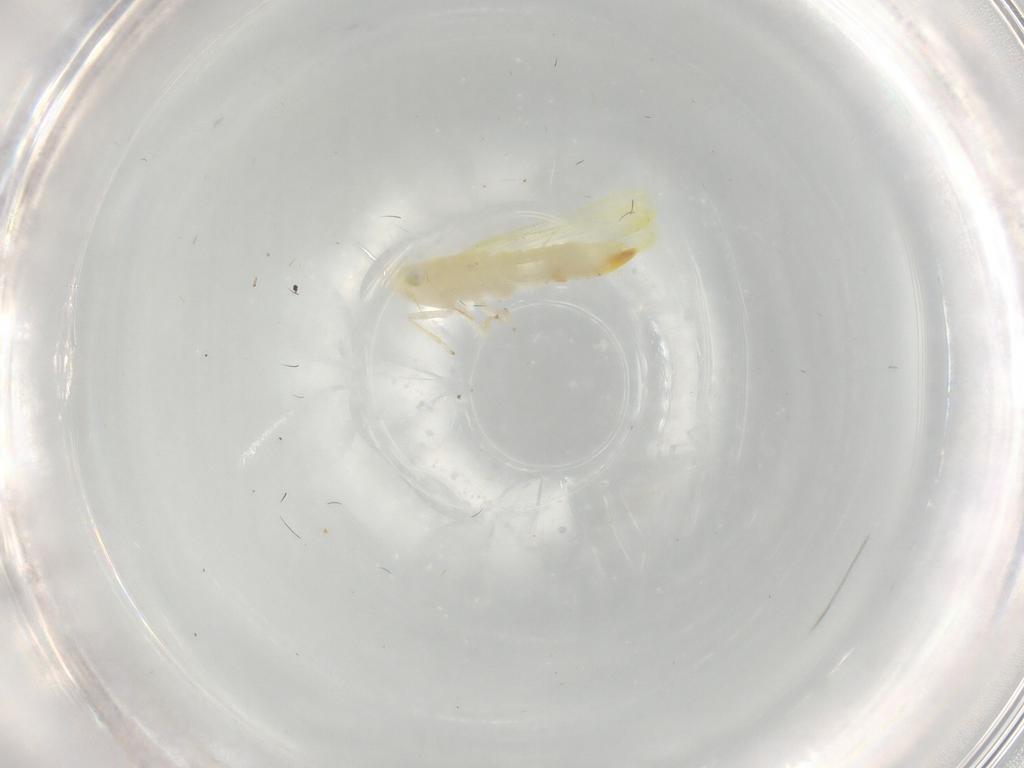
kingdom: Animalia
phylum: Arthropoda
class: Insecta
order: Hemiptera
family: Cicadellidae
